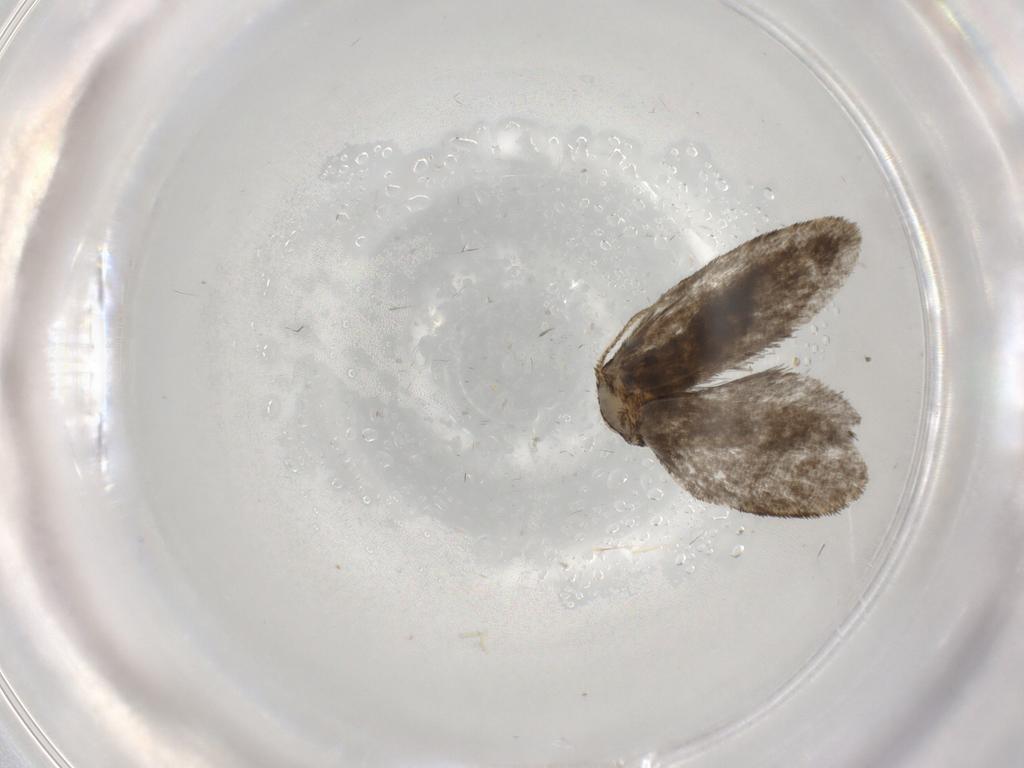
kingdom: Animalia
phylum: Arthropoda
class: Insecta
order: Lepidoptera
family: Psychidae
